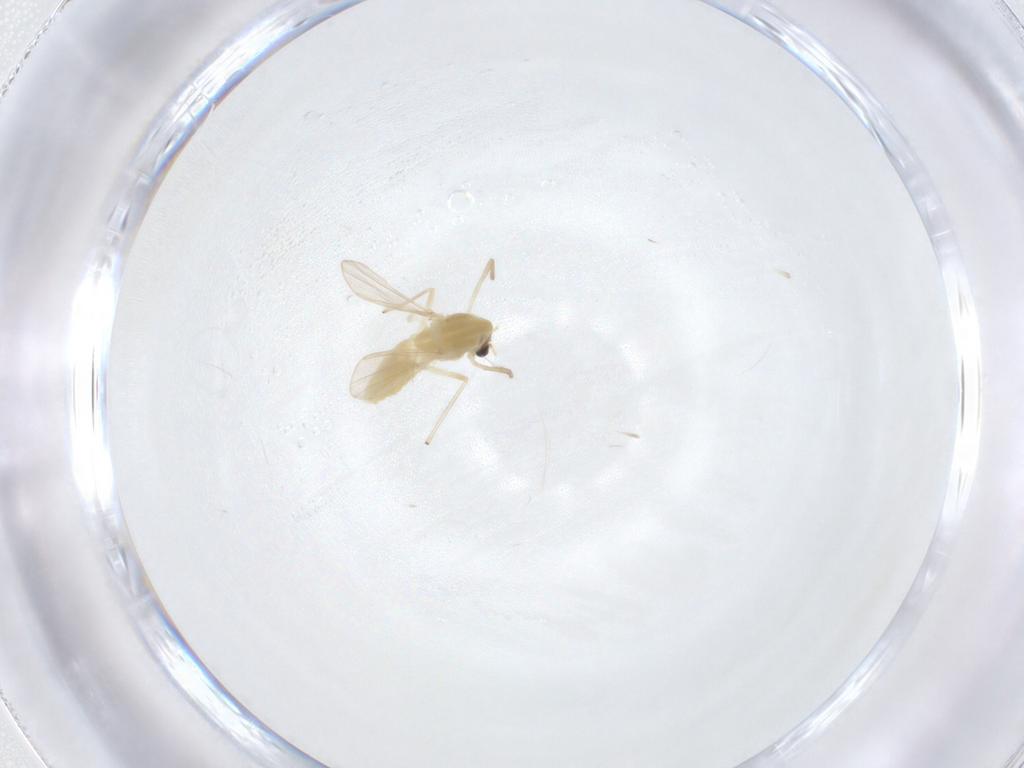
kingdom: Animalia
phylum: Arthropoda
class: Insecta
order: Diptera
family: Chironomidae
